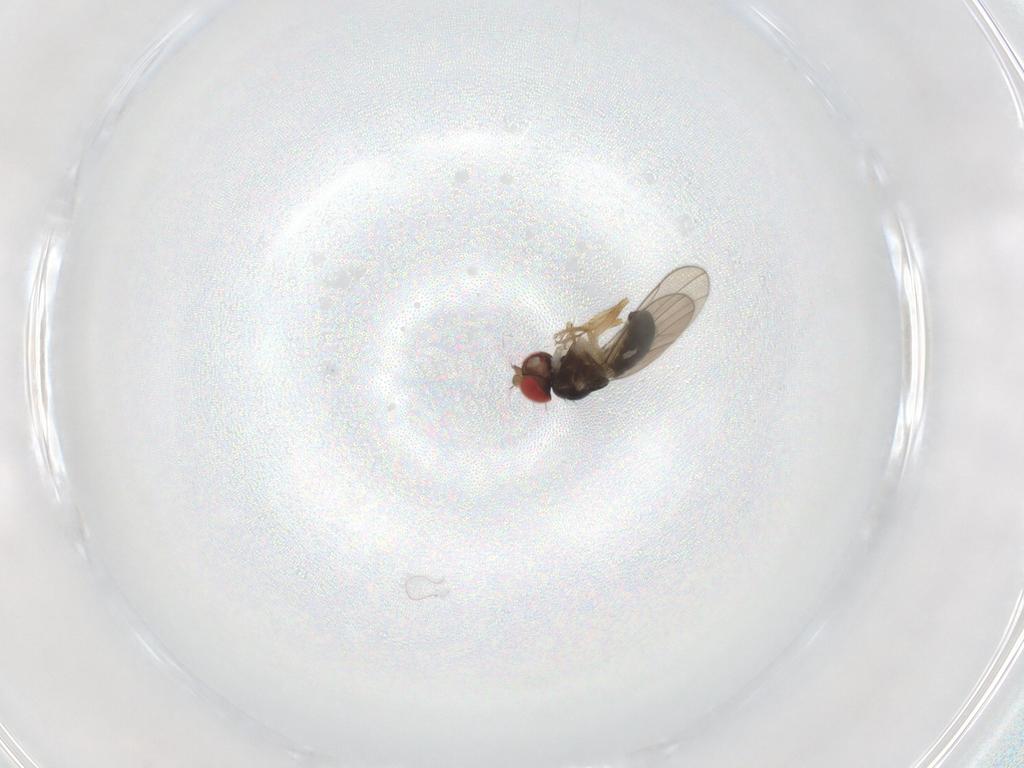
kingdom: Animalia
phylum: Arthropoda
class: Insecta
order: Diptera
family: Drosophilidae
